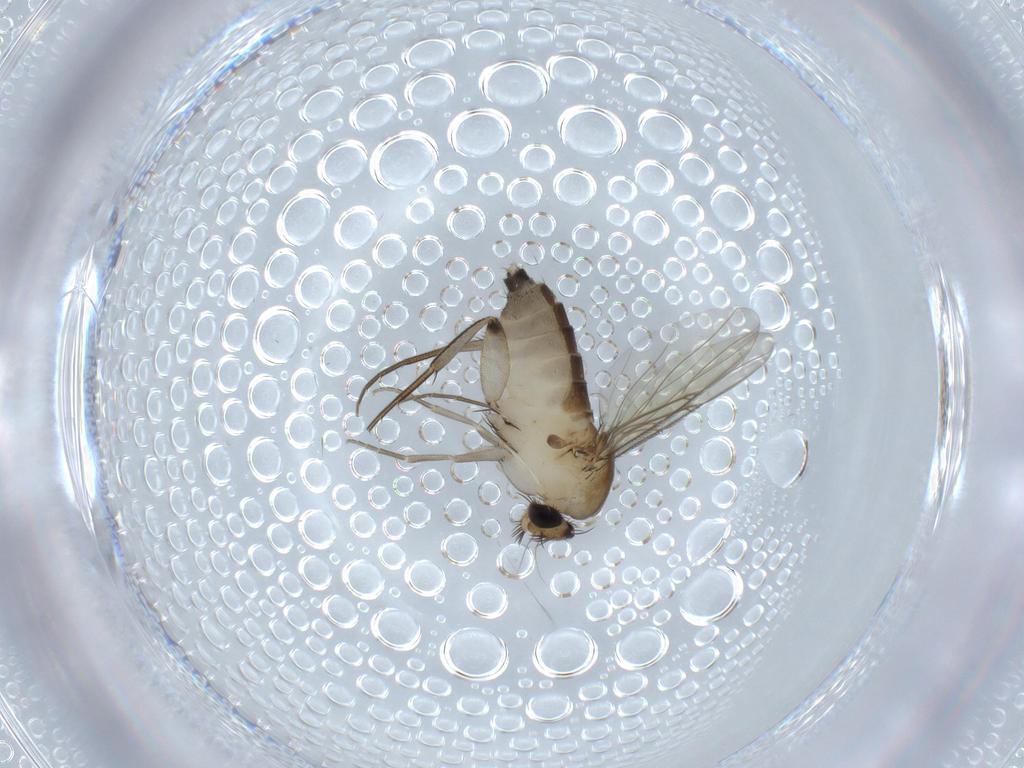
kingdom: Animalia
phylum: Arthropoda
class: Insecta
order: Diptera
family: Phoridae
